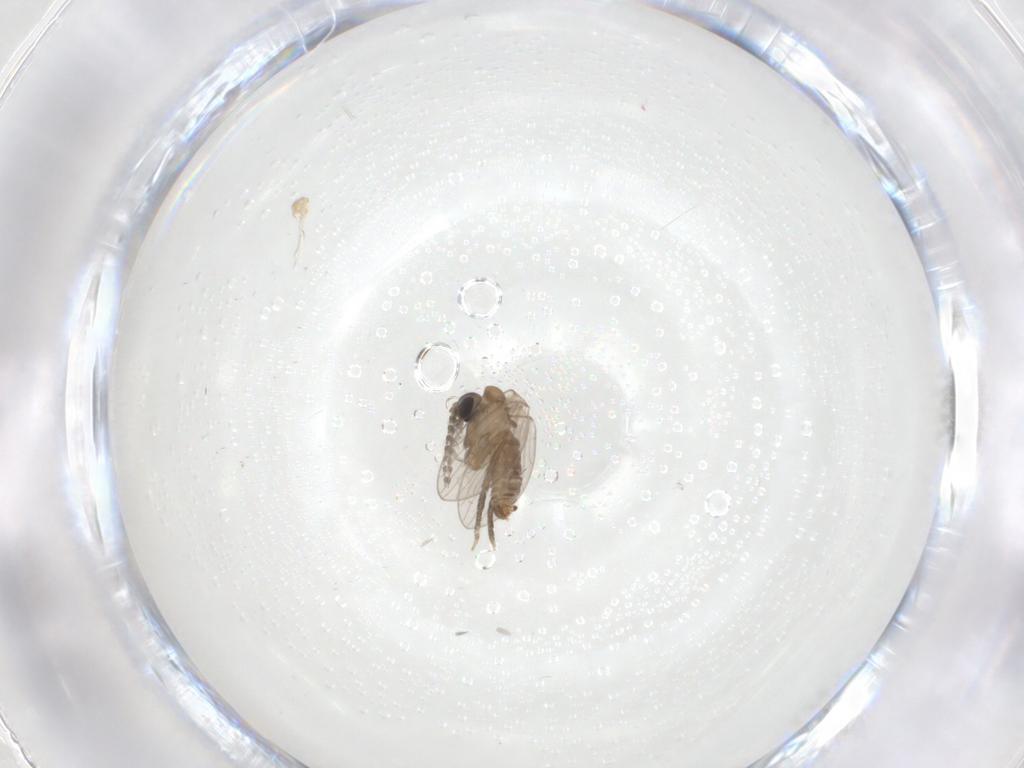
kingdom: Animalia
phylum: Arthropoda
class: Insecta
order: Diptera
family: Psychodidae
